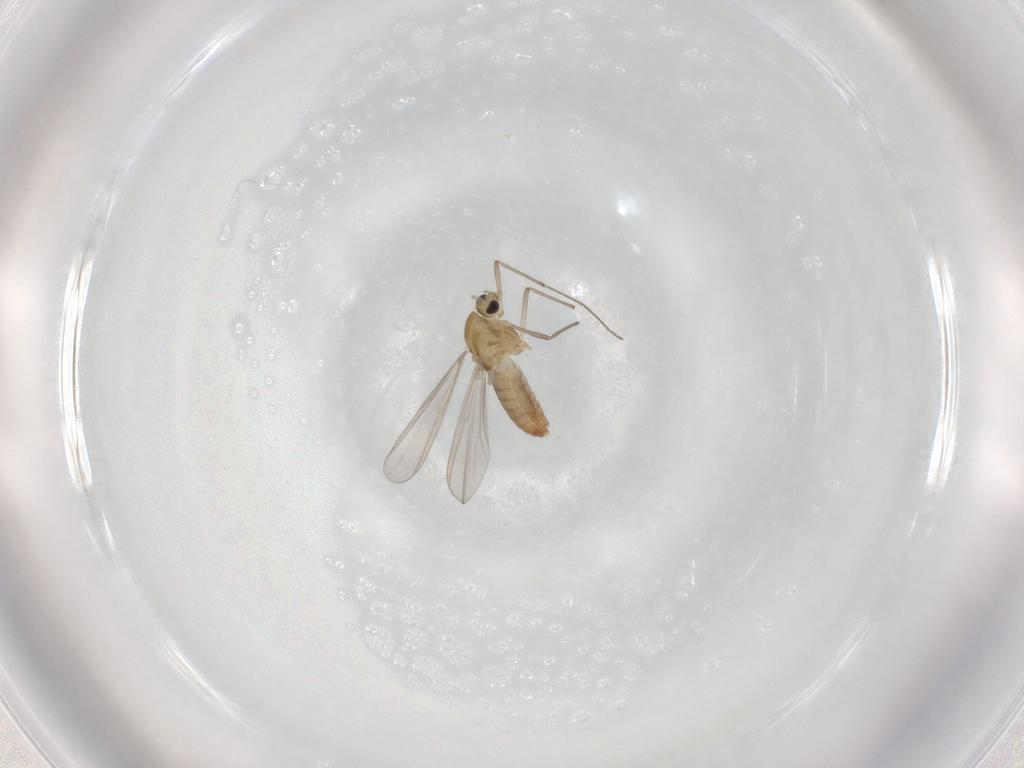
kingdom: Animalia
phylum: Arthropoda
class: Insecta
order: Diptera
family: Chironomidae
